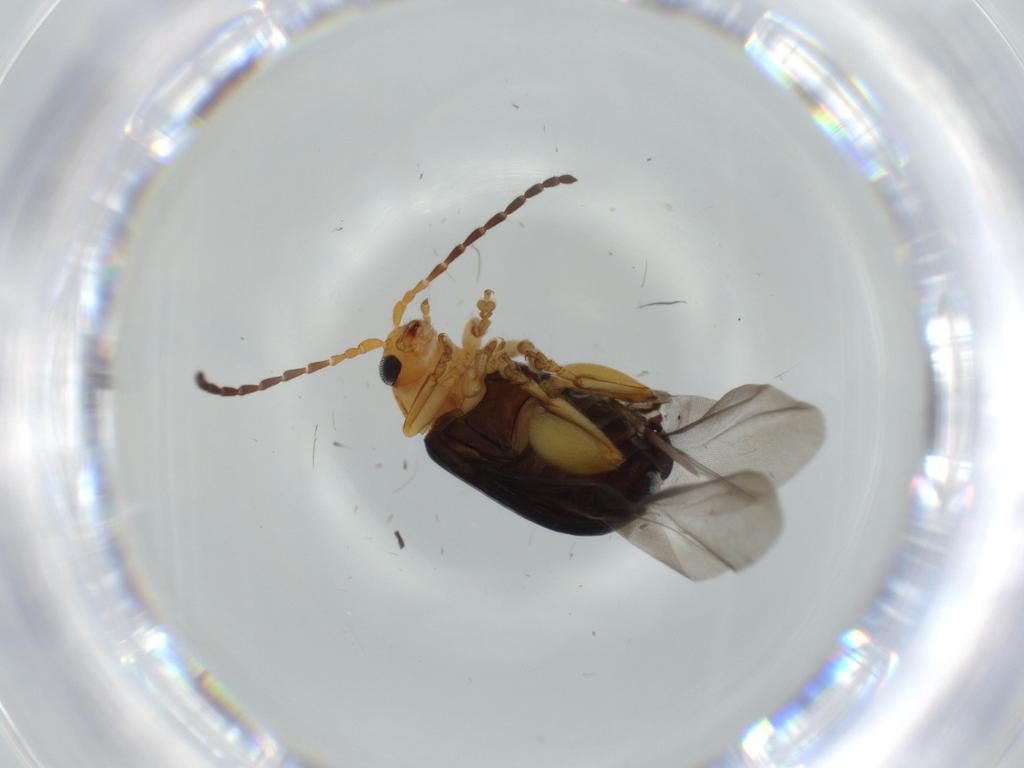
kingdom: Animalia
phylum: Arthropoda
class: Insecta
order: Coleoptera
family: Chrysomelidae
